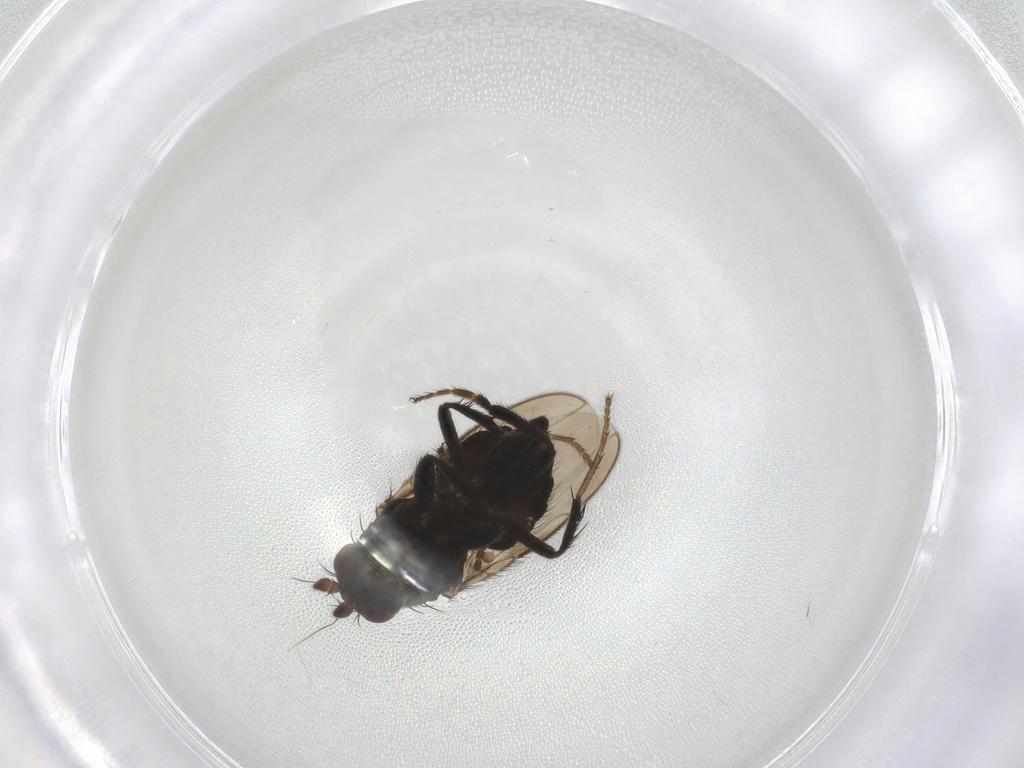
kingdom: Animalia
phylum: Arthropoda
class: Insecta
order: Diptera
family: Sphaeroceridae
